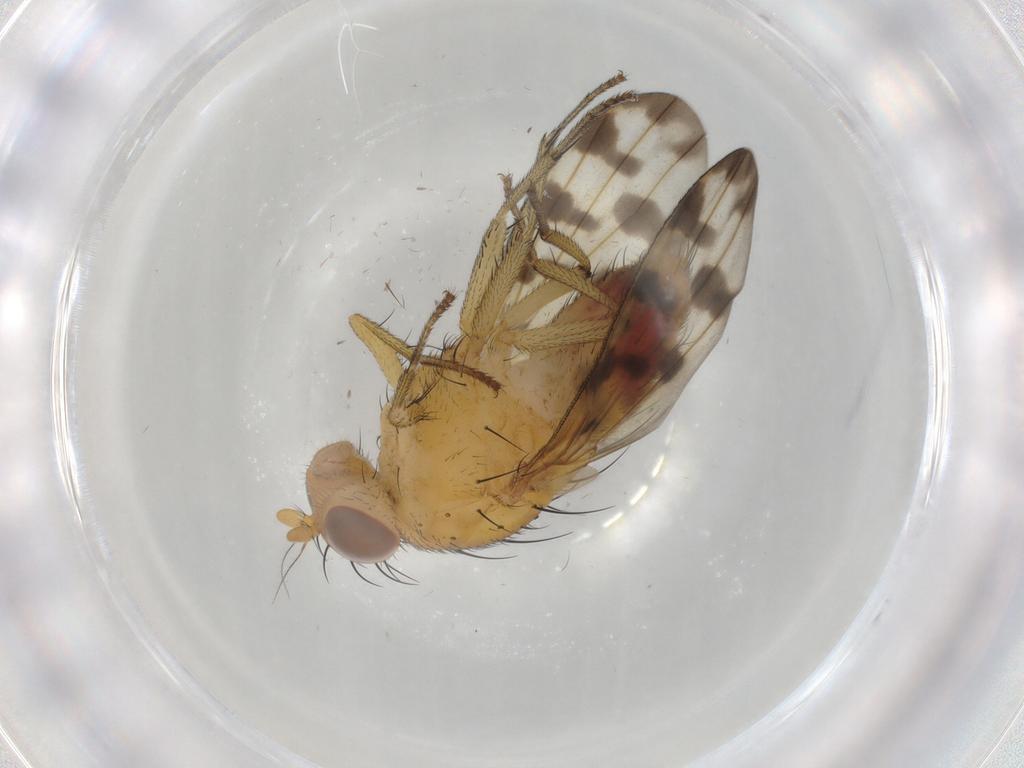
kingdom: Animalia
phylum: Arthropoda
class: Insecta
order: Diptera
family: Sciaridae
